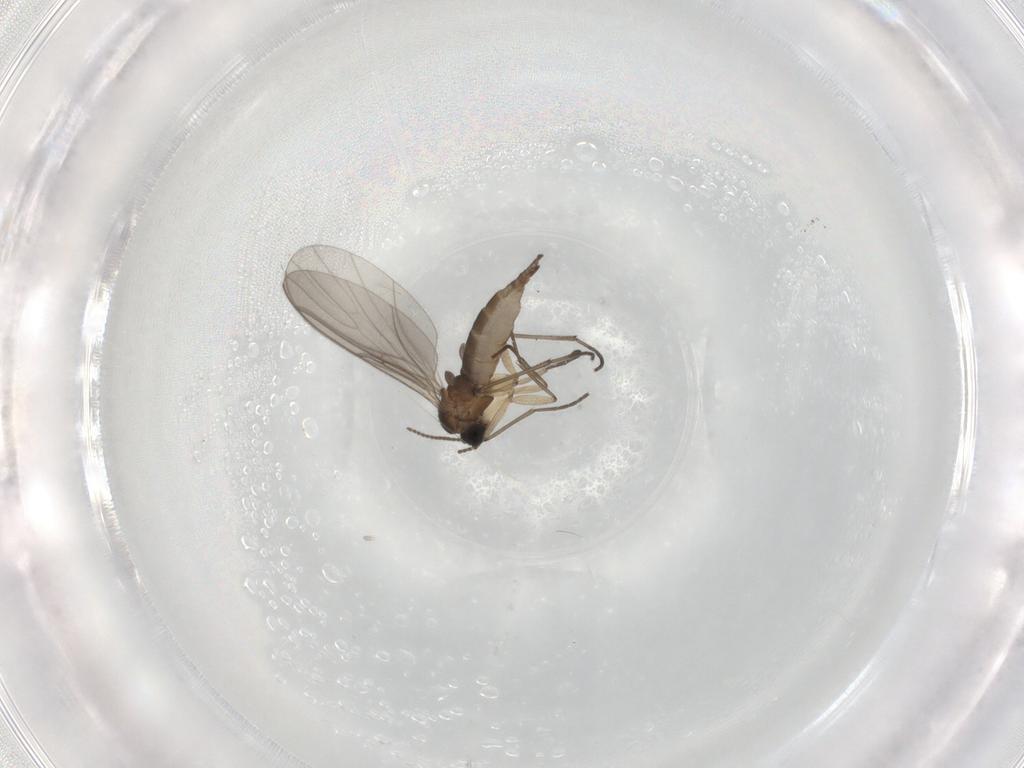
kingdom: Animalia
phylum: Arthropoda
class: Insecta
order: Diptera
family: Sciaridae
